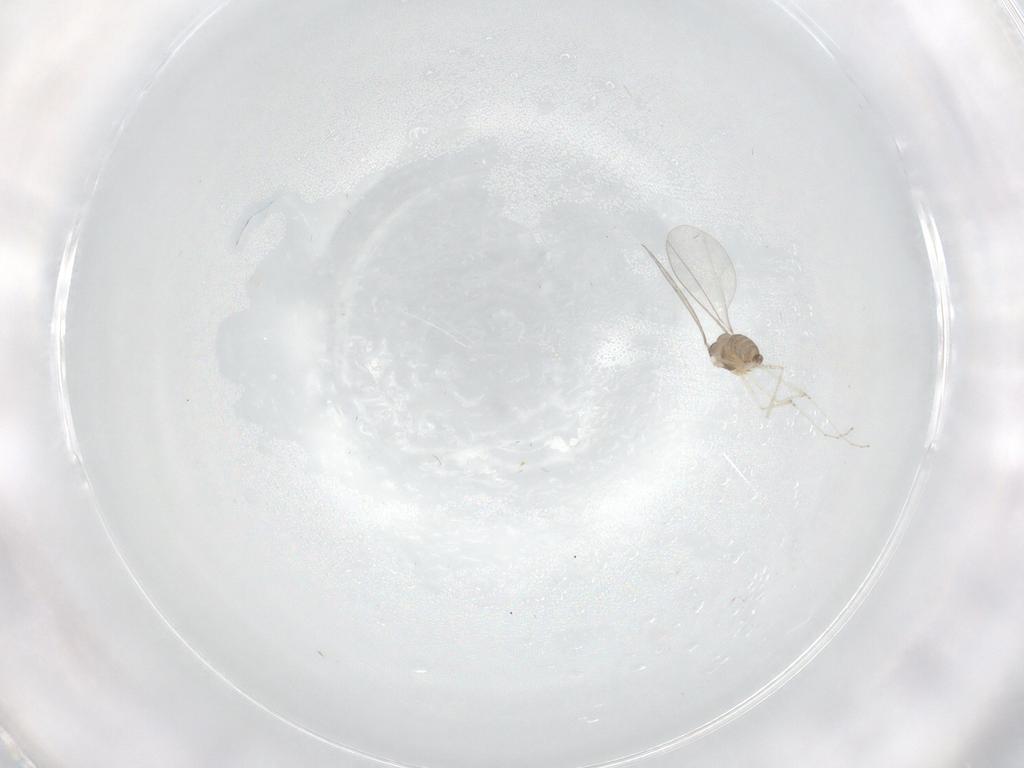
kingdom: Animalia
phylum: Arthropoda
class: Insecta
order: Diptera
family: Cecidomyiidae
